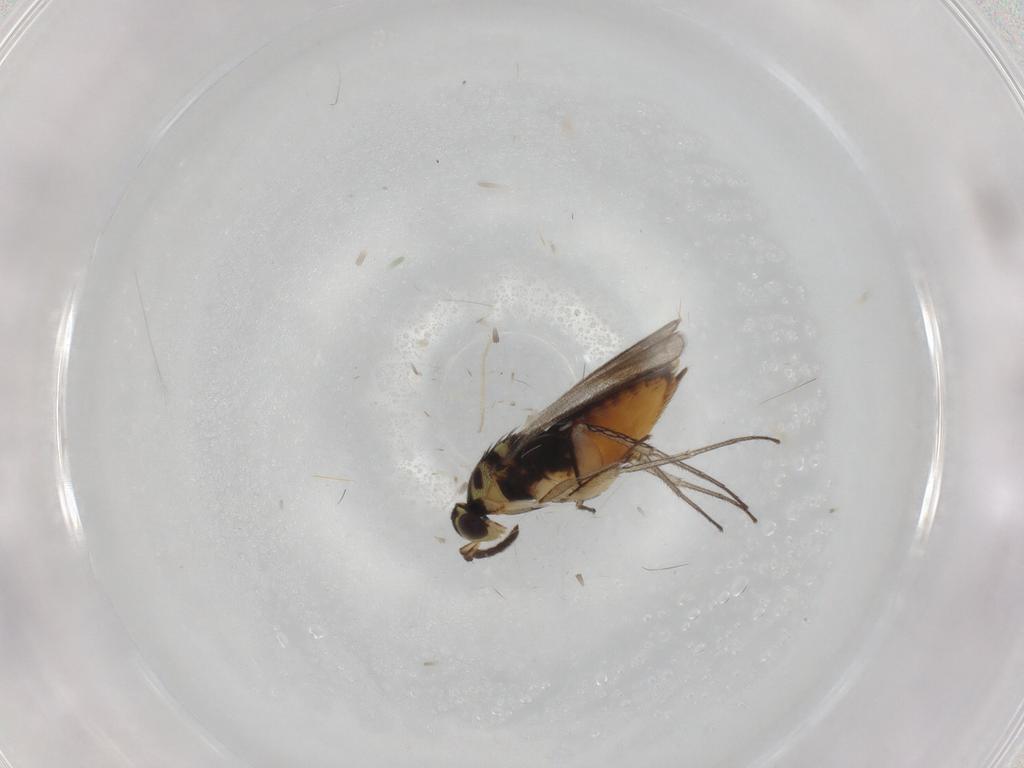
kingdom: Animalia
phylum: Arthropoda
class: Insecta
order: Hymenoptera
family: Eulophidae
